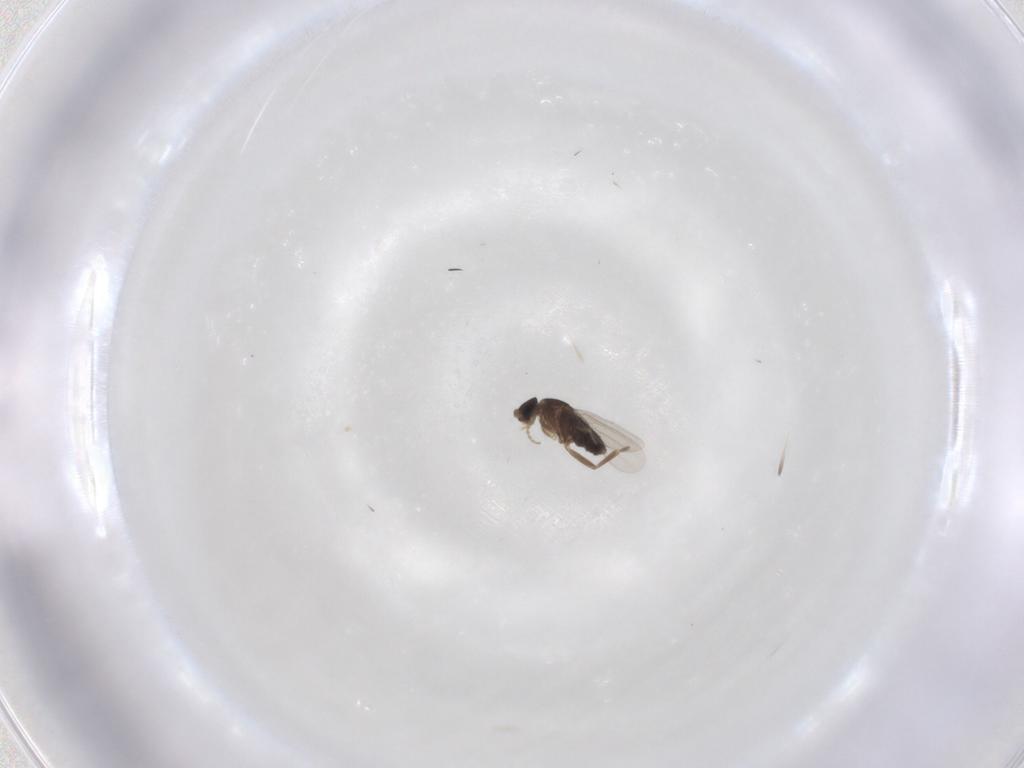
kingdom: Animalia
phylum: Arthropoda
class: Insecta
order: Diptera
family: Phoridae
